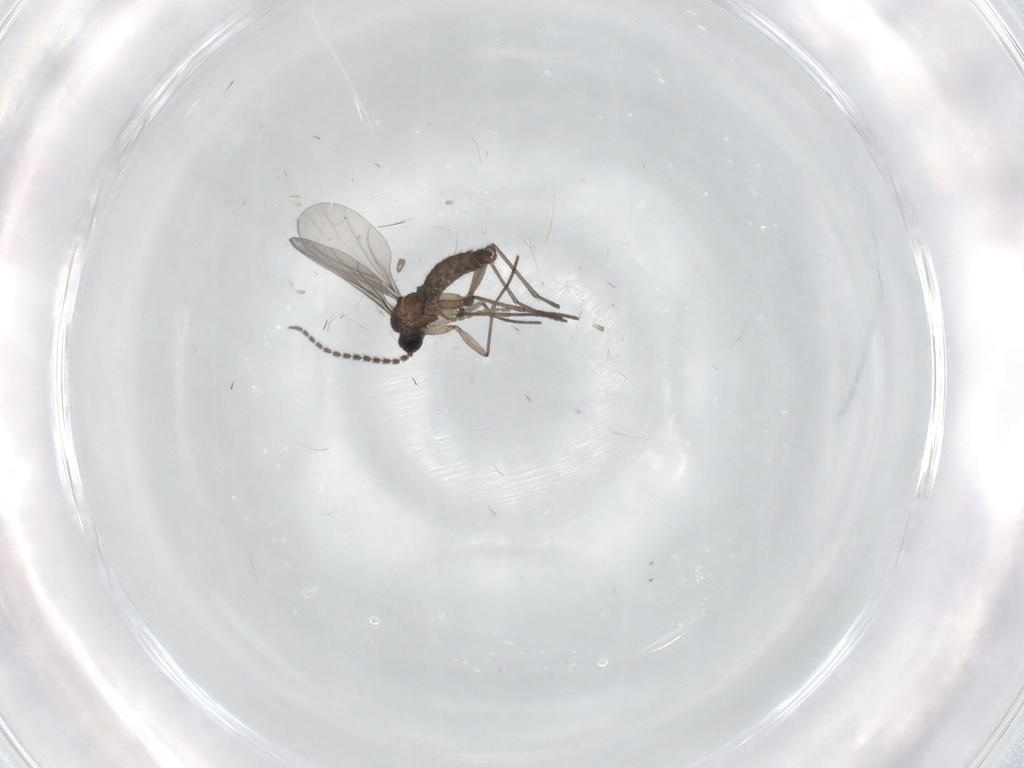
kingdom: Animalia
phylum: Arthropoda
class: Insecta
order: Diptera
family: Cecidomyiidae
